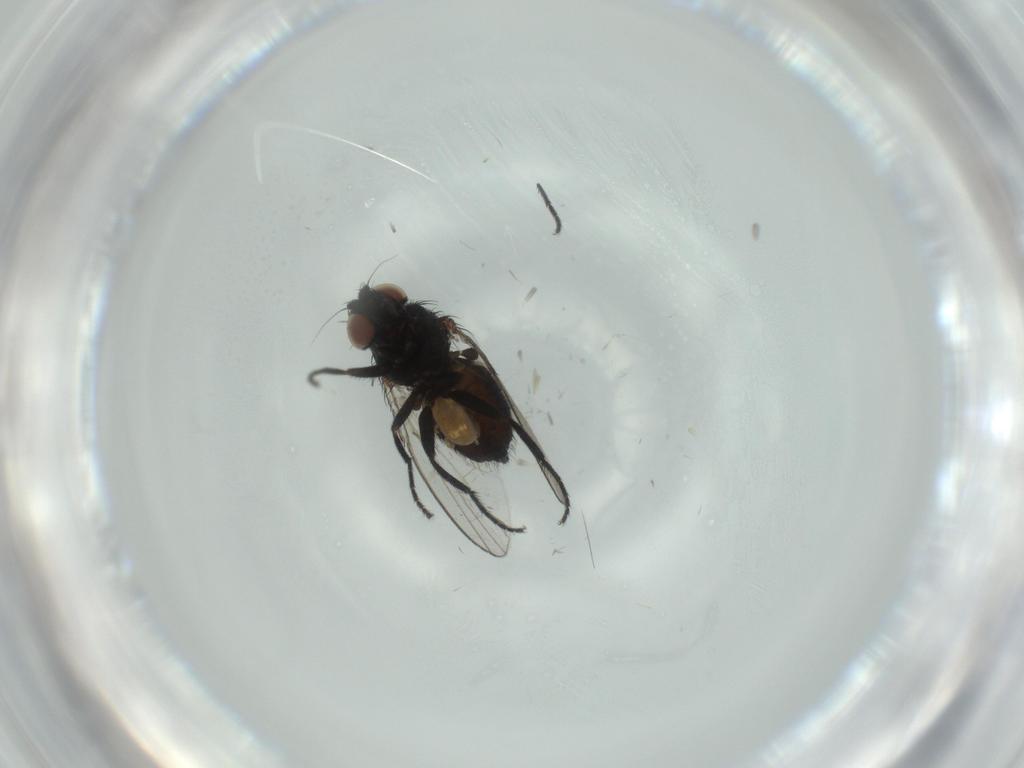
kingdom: Animalia
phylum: Arthropoda
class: Insecta
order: Diptera
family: Milichiidae
